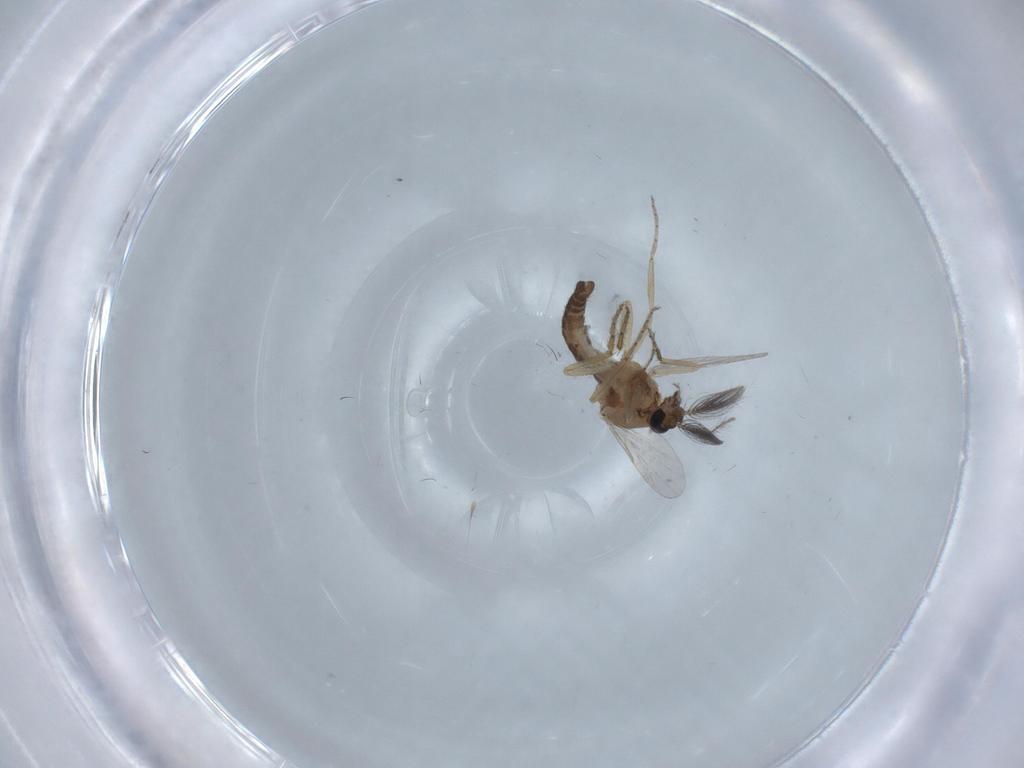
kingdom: Animalia
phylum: Arthropoda
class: Insecta
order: Diptera
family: Ceratopogonidae
